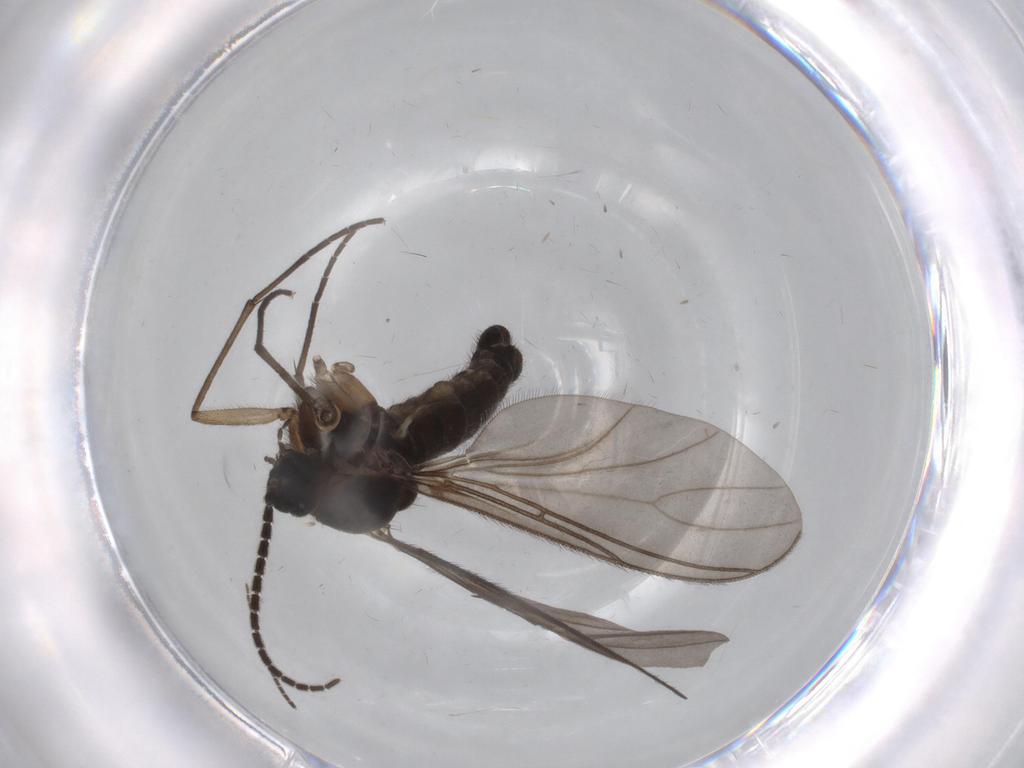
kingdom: Animalia
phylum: Arthropoda
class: Insecta
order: Diptera
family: Sciaridae
